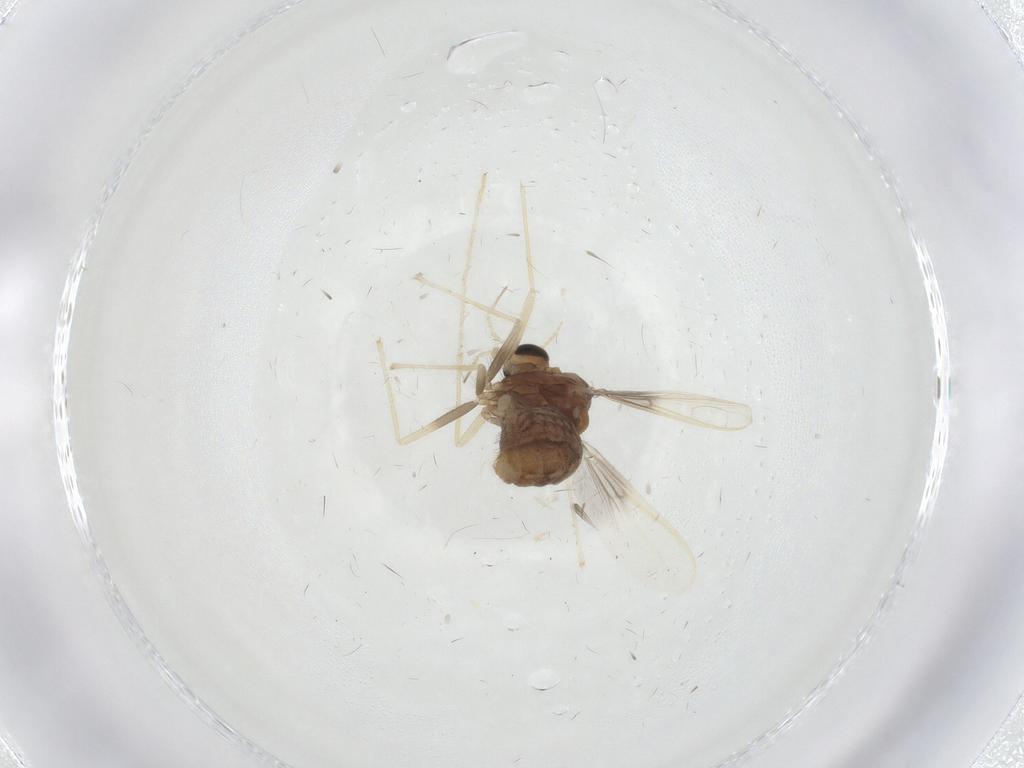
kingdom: Animalia
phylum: Arthropoda
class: Insecta
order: Diptera
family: Chironomidae
